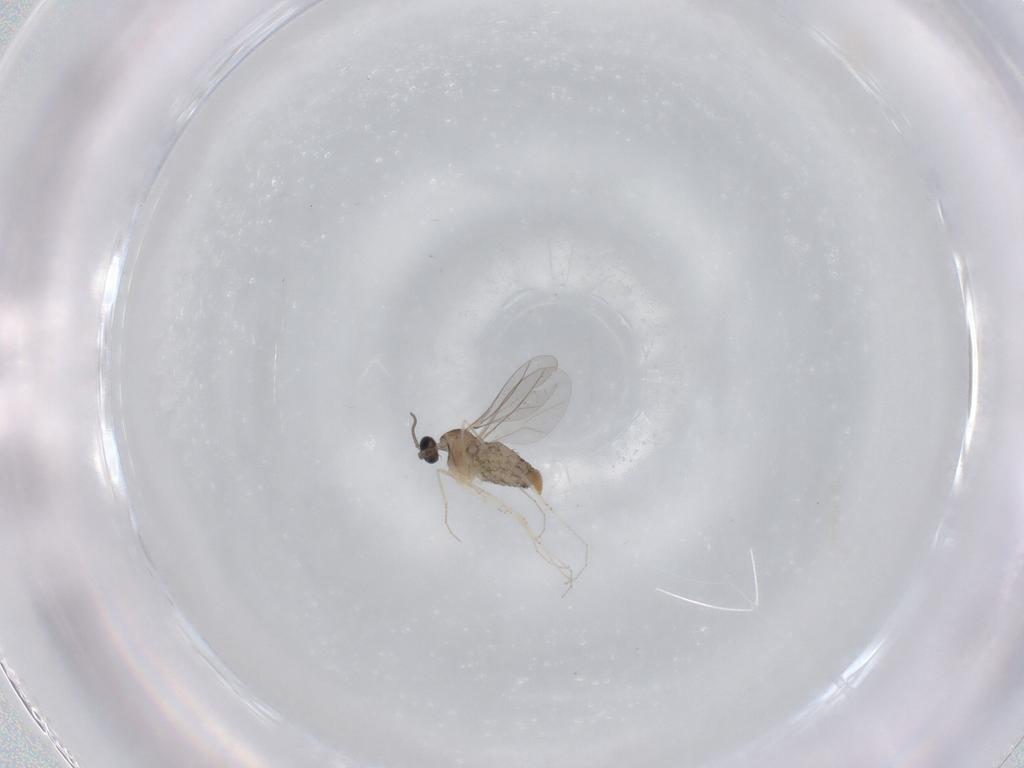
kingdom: Animalia
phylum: Arthropoda
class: Insecta
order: Diptera
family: Cecidomyiidae
